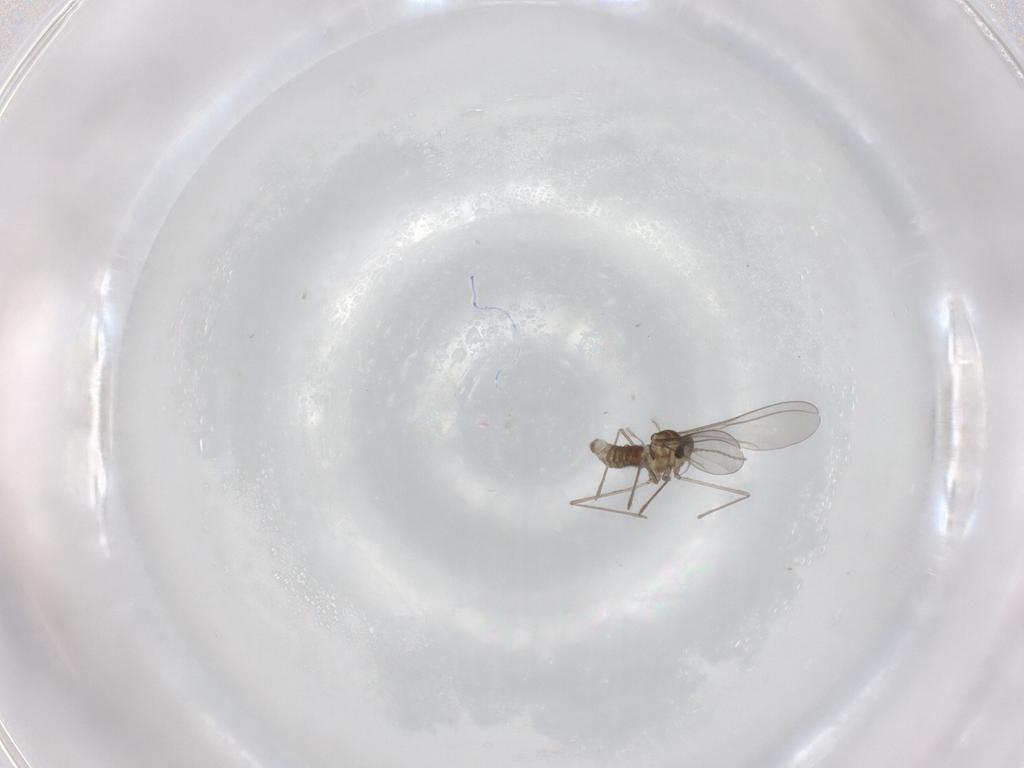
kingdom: Animalia
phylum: Arthropoda
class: Insecta
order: Diptera
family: Cecidomyiidae
